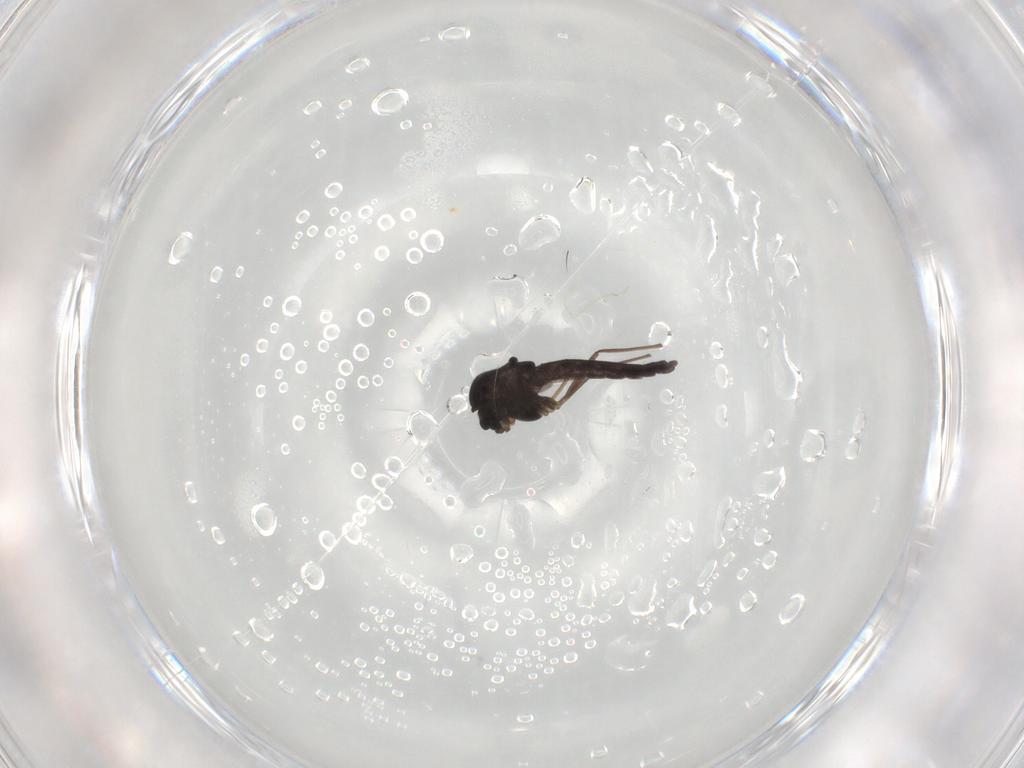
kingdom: Animalia
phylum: Arthropoda
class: Insecta
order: Diptera
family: Chironomidae
